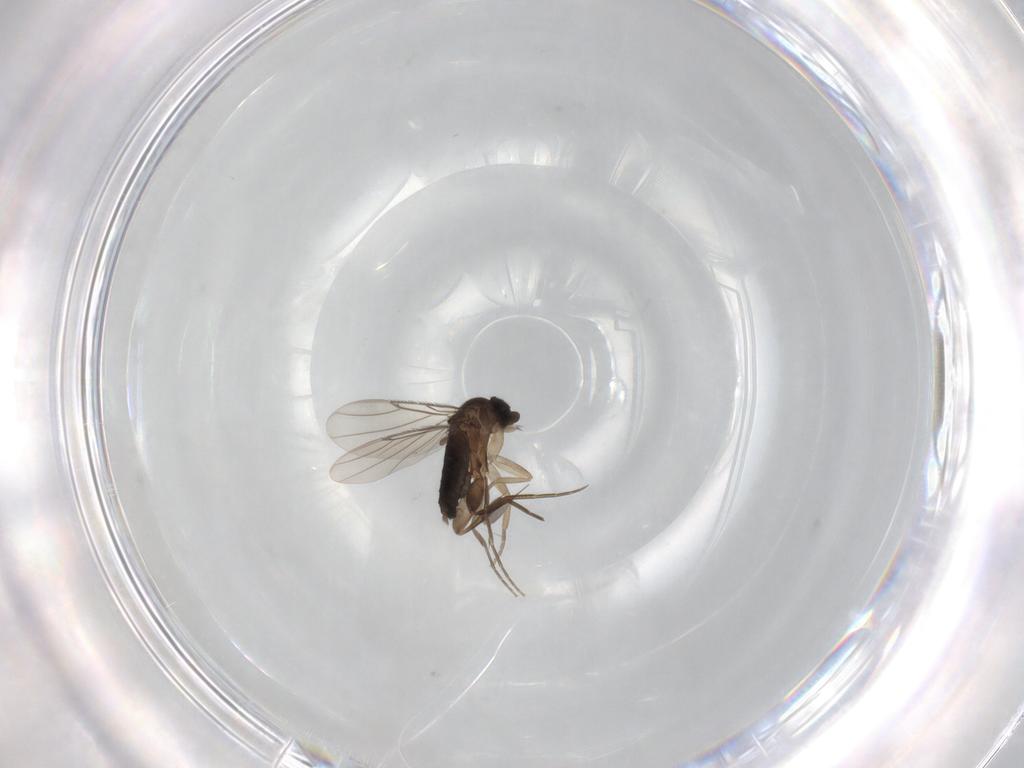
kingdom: Animalia
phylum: Arthropoda
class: Insecta
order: Diptera
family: Phoridae
